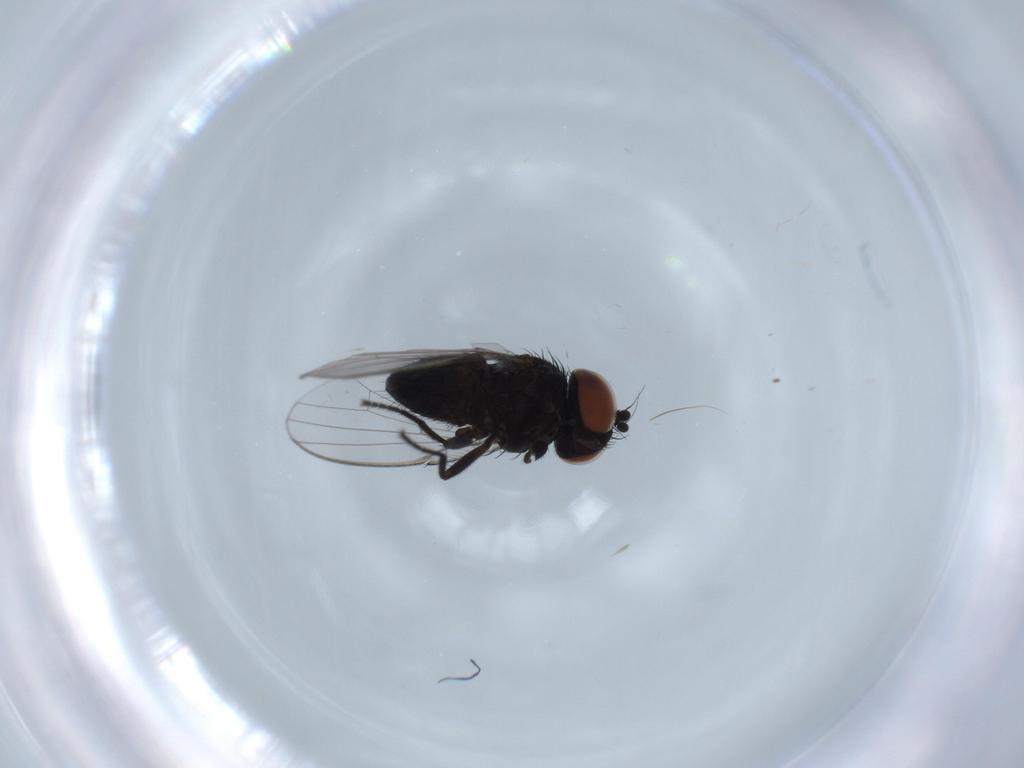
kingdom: Animalia
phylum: Arthropoda
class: Insecta
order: Diptera
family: Milichiidae
